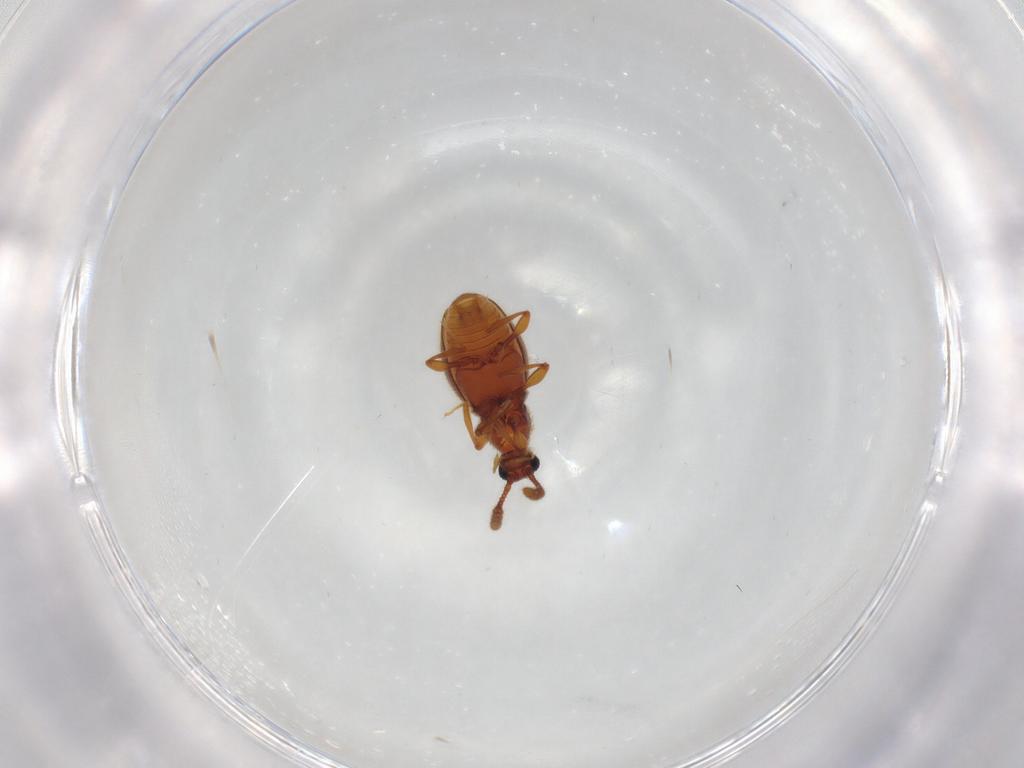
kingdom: Animalia
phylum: Arthropoda
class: Insecta
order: Coleoptera
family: Staphylinidae
